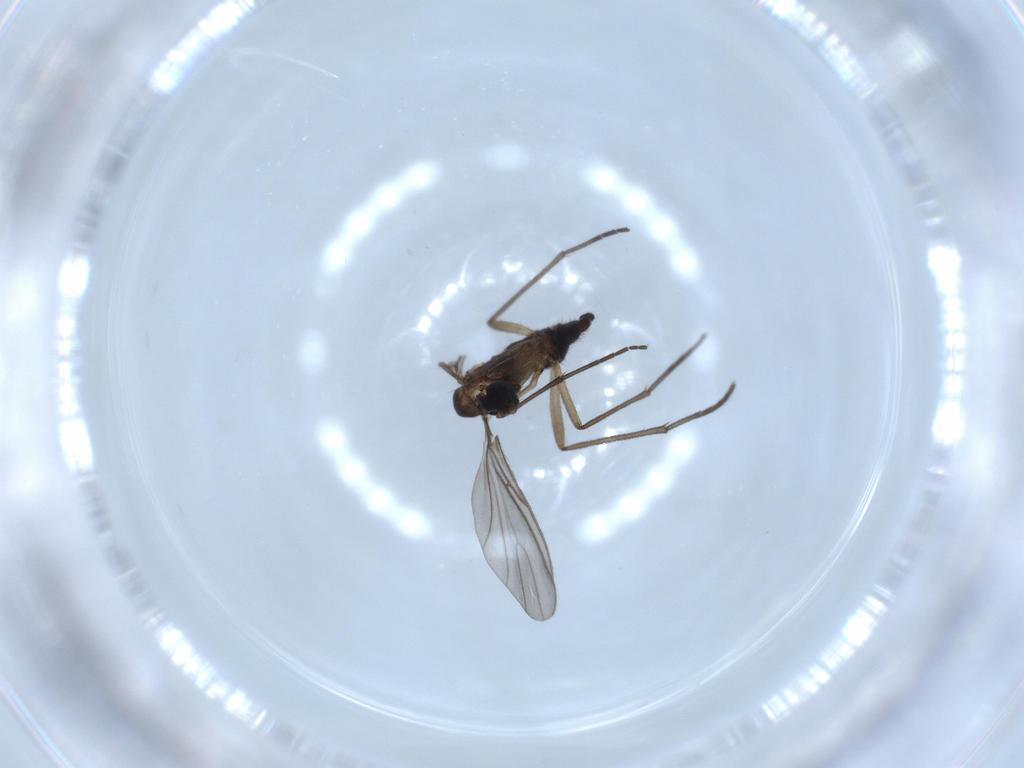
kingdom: Animalia
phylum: Arthropoda
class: Insecta
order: Diptera
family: Sciaridae
